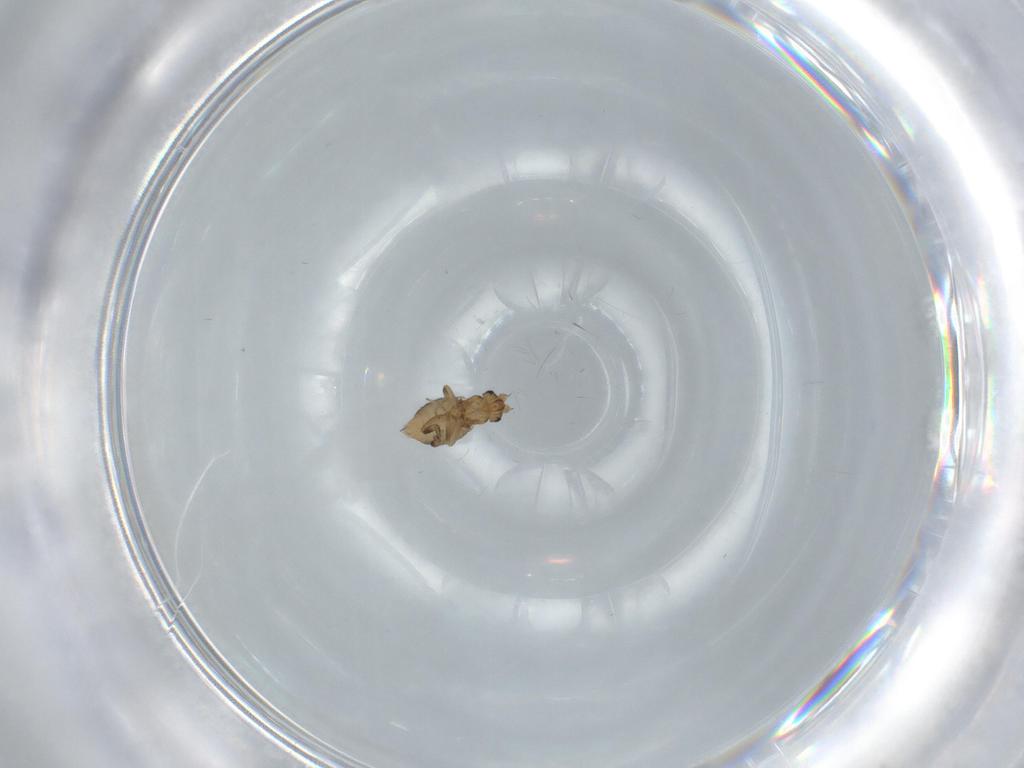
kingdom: Animalia
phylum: Arthropoda
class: Insecta
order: Diptera
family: Phoridae
